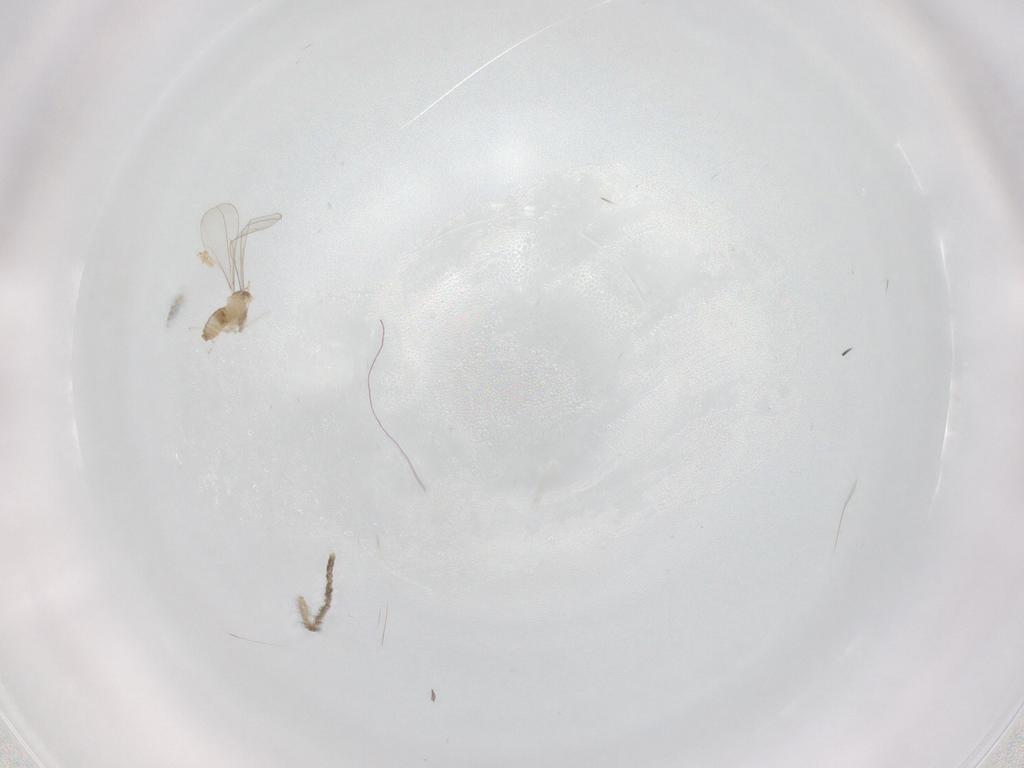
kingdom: Animalia
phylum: Arthropoda
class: Insecta
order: Diptera
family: Cecidomyiidae
